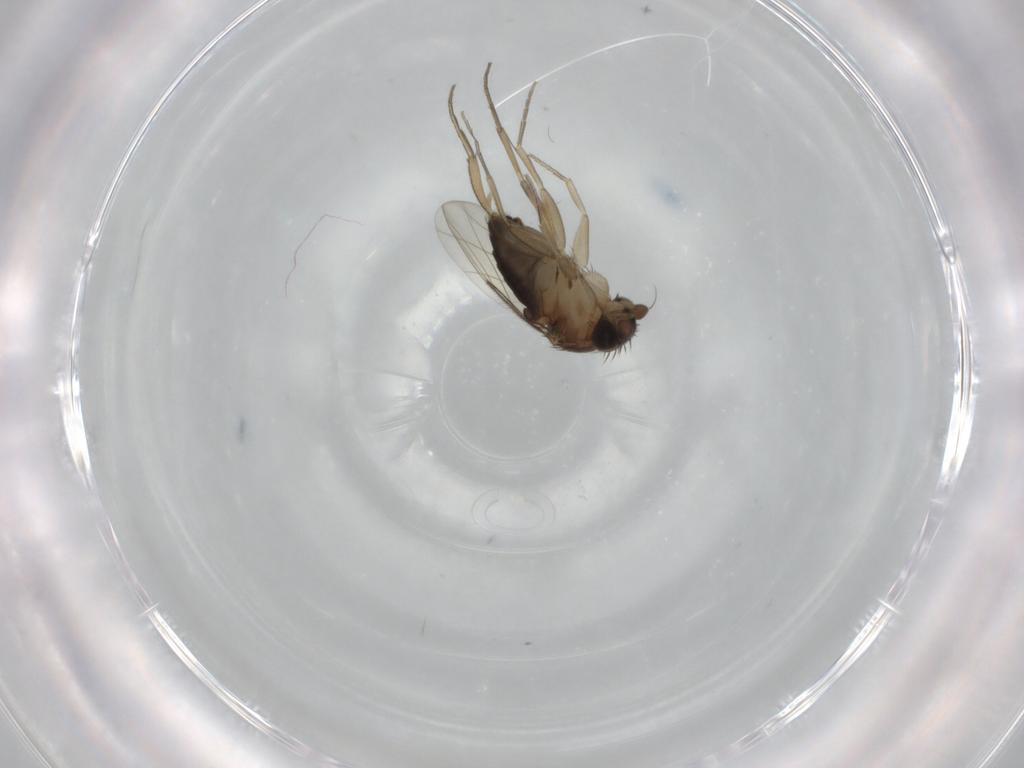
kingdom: Animalia
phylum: Arthropoda
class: Insecta
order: Diptera
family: Phoridae
